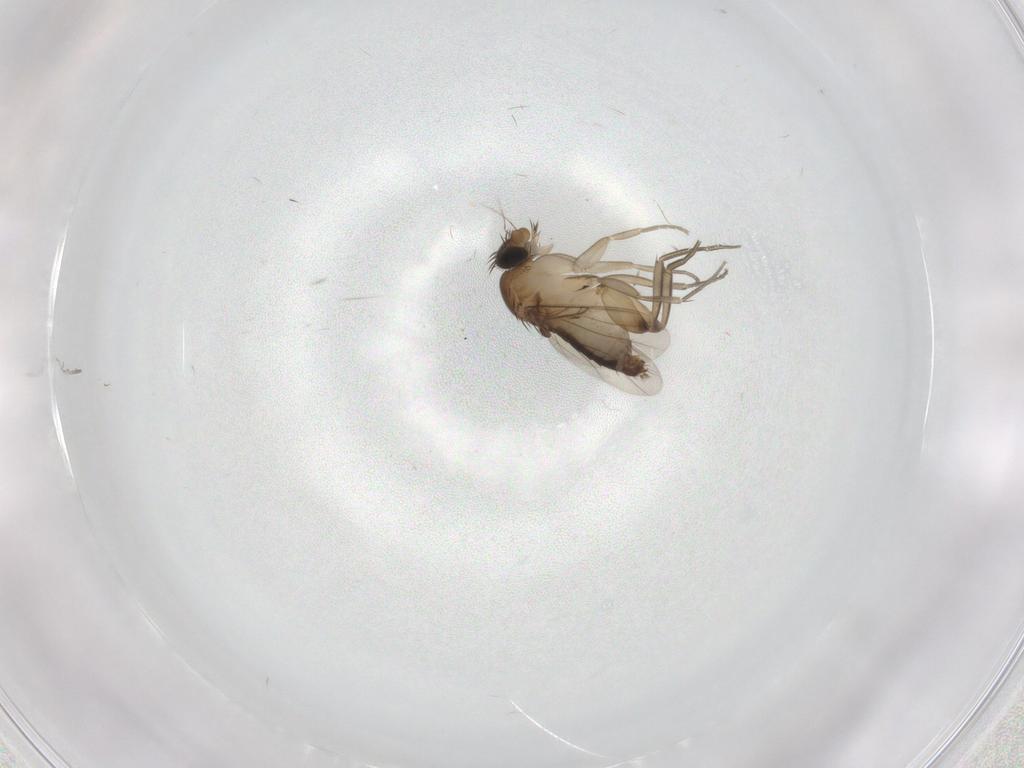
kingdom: Animalia
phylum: Arthropoda
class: Insecta
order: Diptera
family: Phoridae
